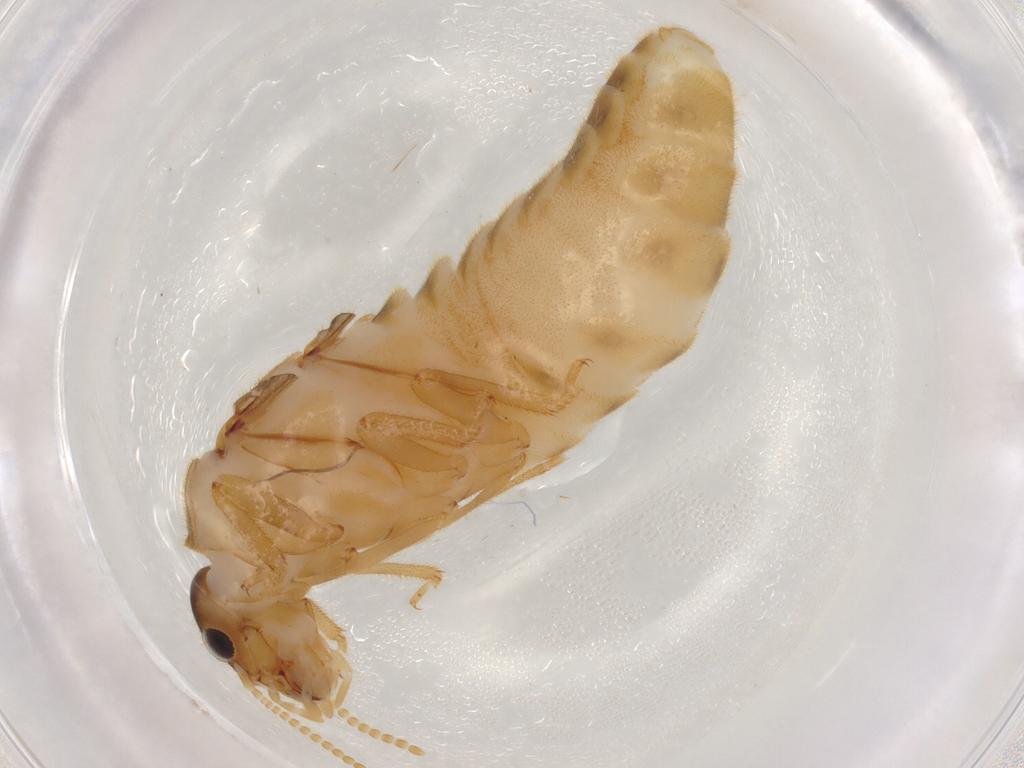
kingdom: Animalia
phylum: Arthropoda
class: Insecta
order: Blattodea
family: Termitidae
